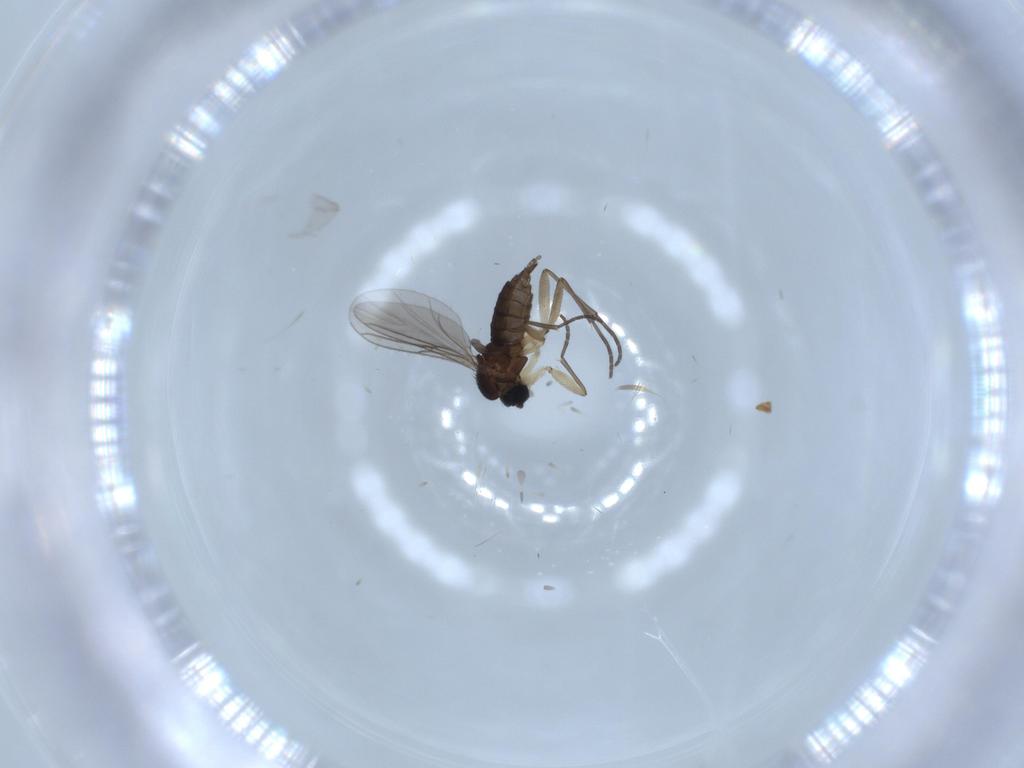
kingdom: Animalia
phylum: Arthropoda
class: Insecta
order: Diptera
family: Sciaridae
